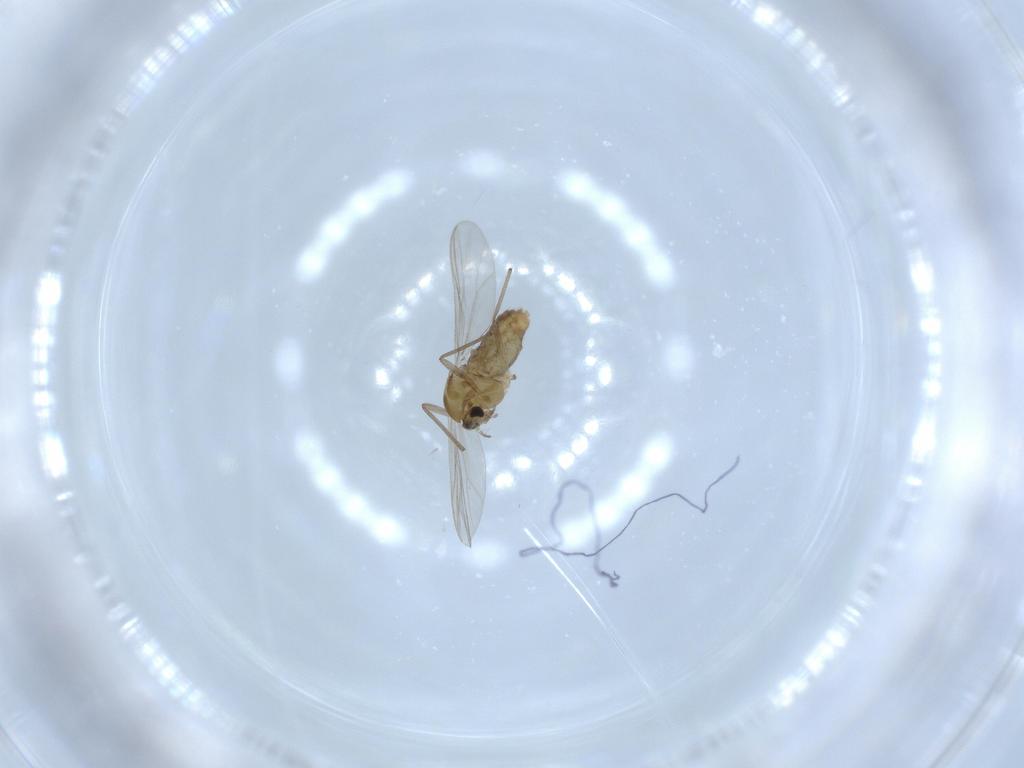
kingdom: Animalia
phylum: Arthropoda
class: Insecta
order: Diptera
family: Chironomidae
